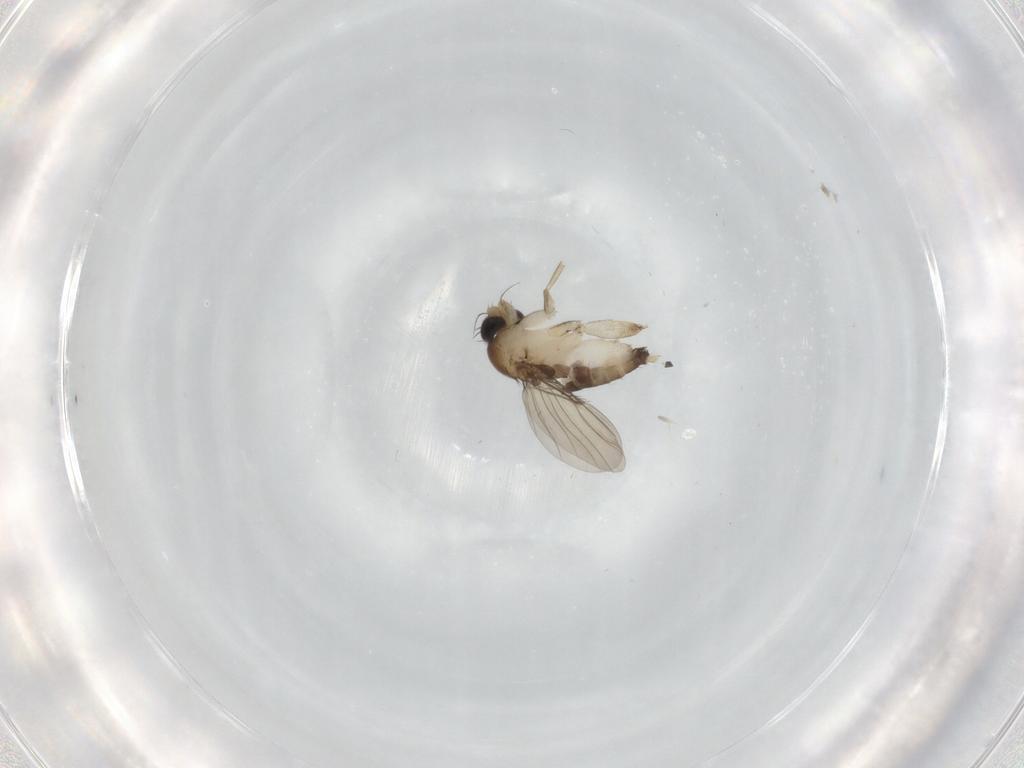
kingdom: Animalia
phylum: Arthropoda
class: Insecta
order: Diptera
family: Phoridae
